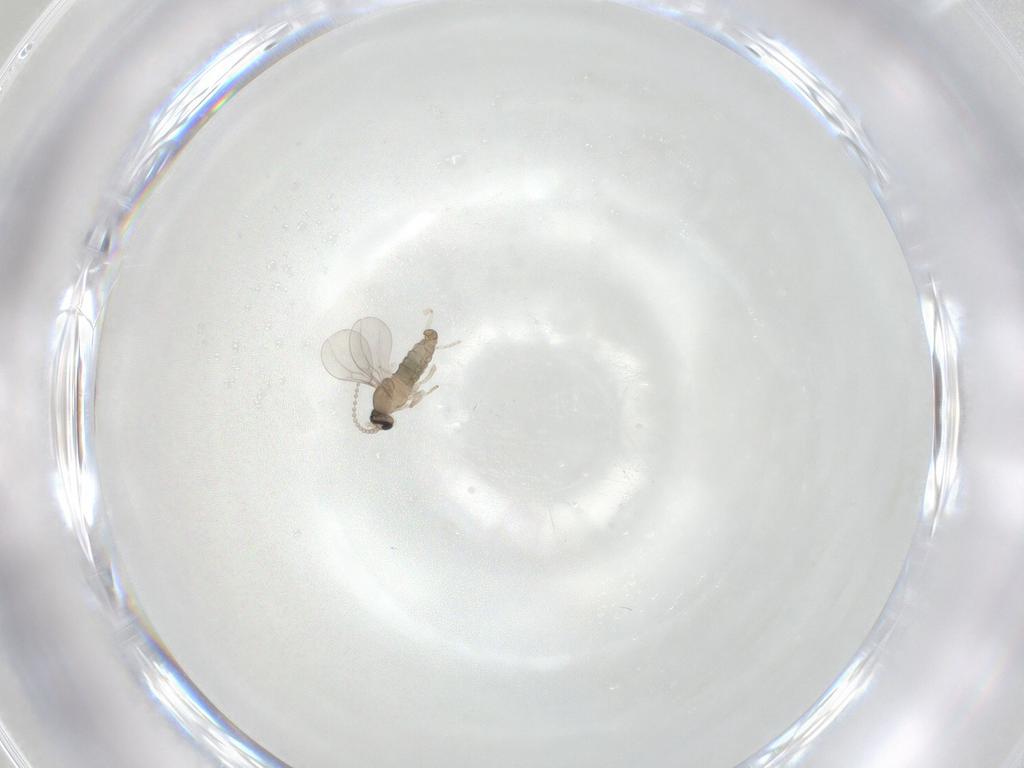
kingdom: Animalia
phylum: Arthropoda
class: Insecta
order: Diptera
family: Cecidomyiidae
